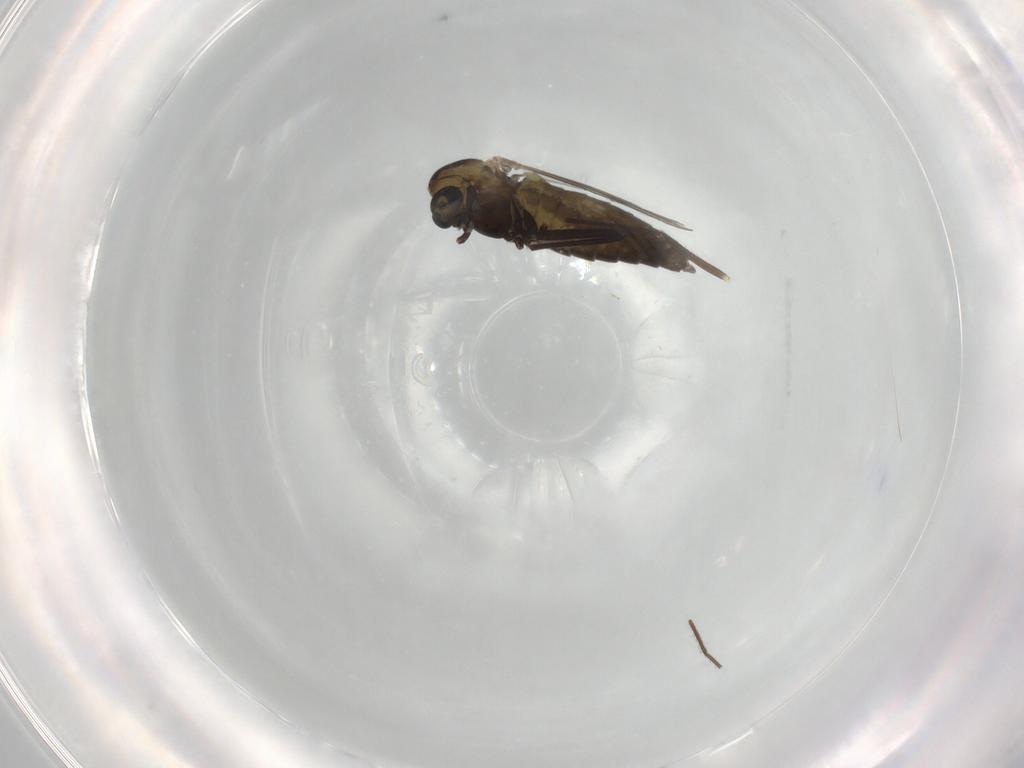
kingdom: Animalia
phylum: Arthropoda
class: Insecta
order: Diptera
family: Chironomidae
